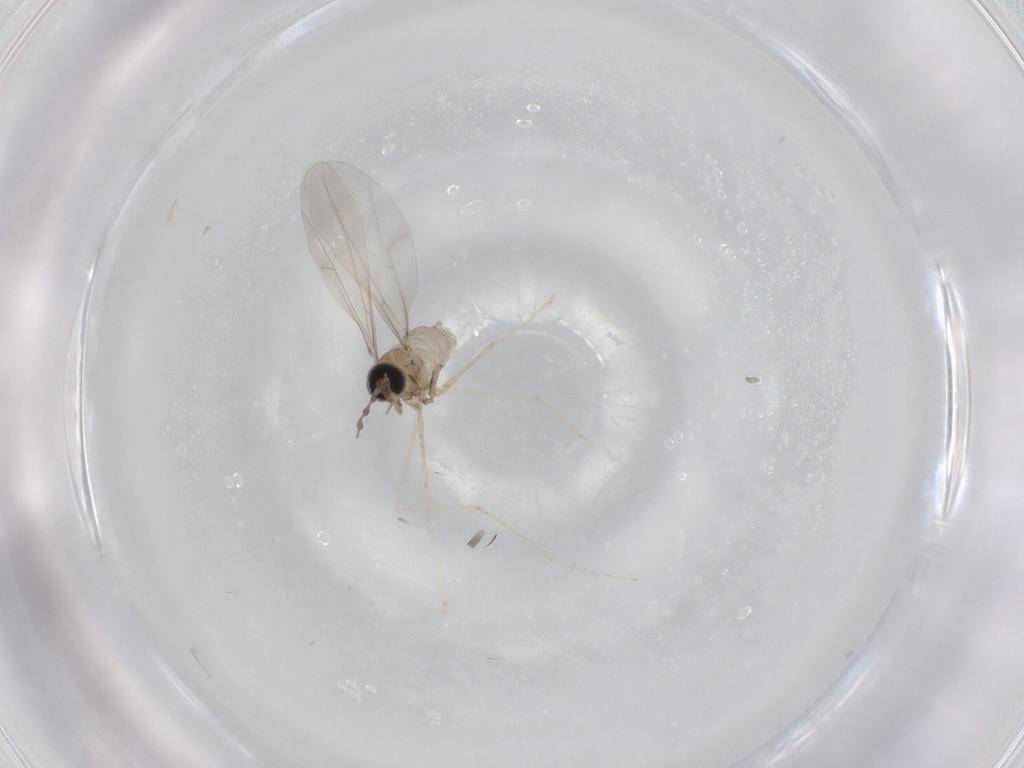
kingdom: Animalia
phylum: Arthropoda
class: Insecta
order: Diptera
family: Cecidomyiidae
